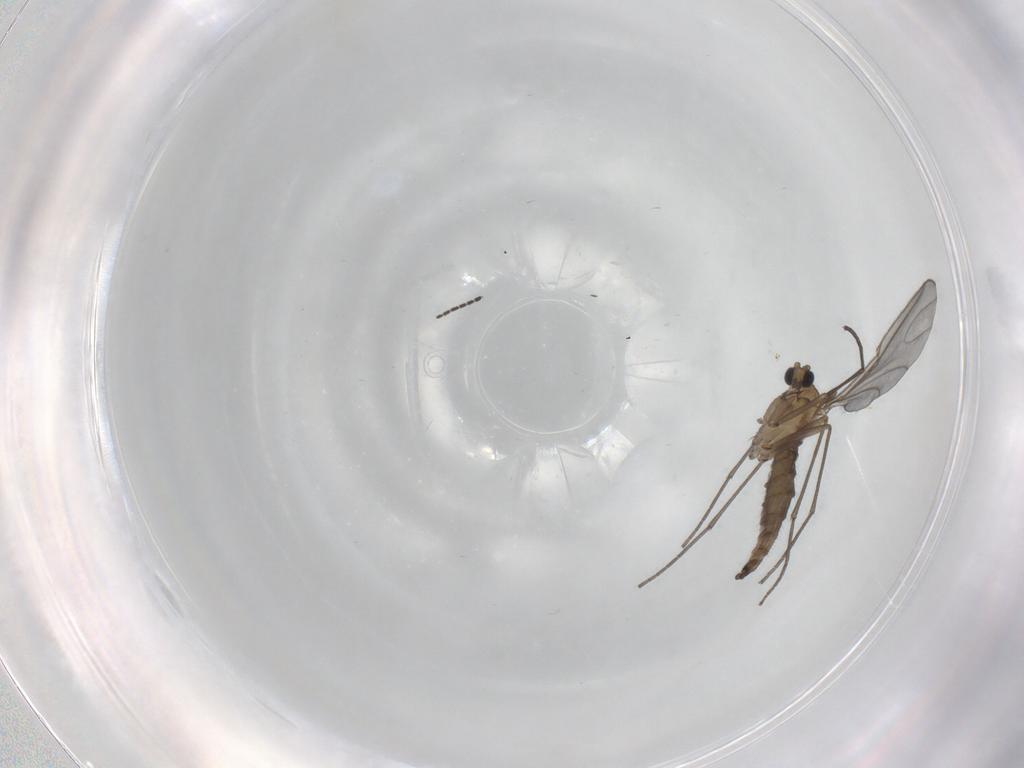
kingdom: Animalia
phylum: Arthropoda
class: Insecta
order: Diptera
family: Sciaridae
